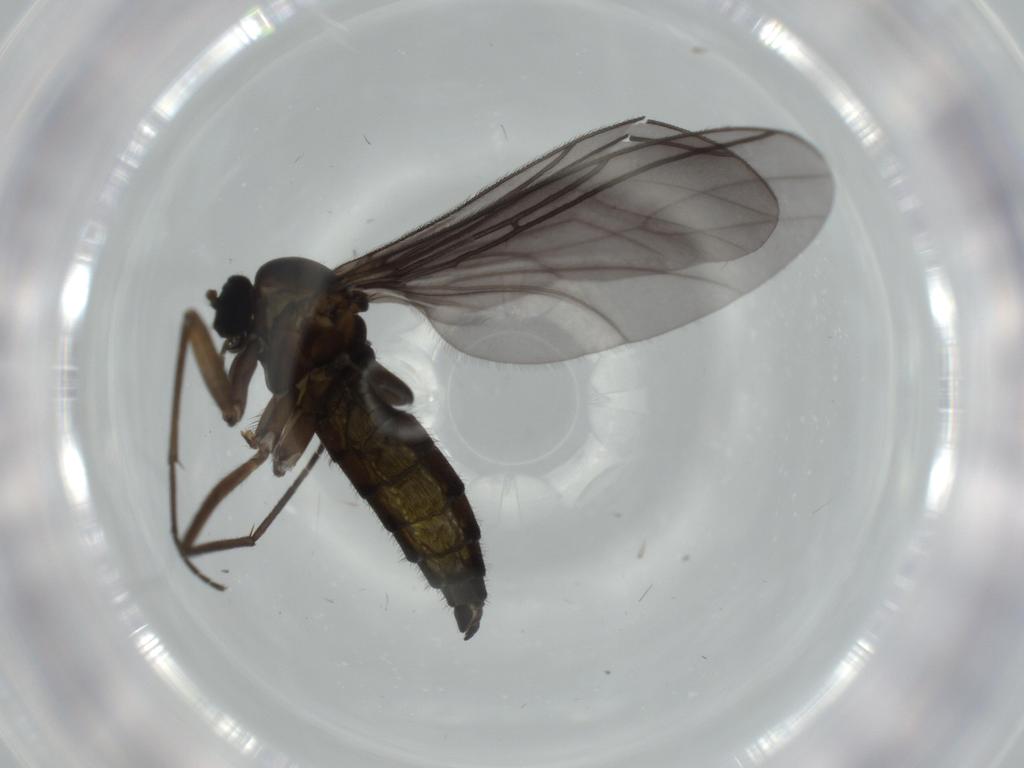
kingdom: Animalia
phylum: Arthropoda
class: Insecta
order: Diptera
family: Sciaridae
